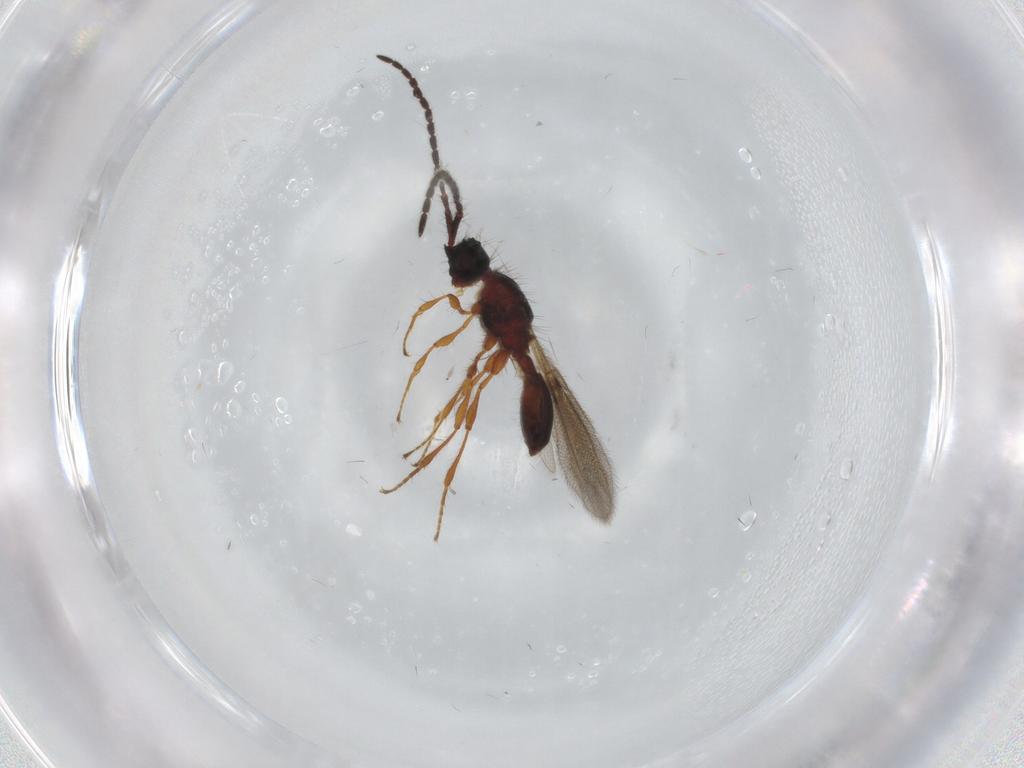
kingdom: Animalia
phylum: Arthropoda
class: Insecta
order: Hymenoptera
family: Diapriidae
